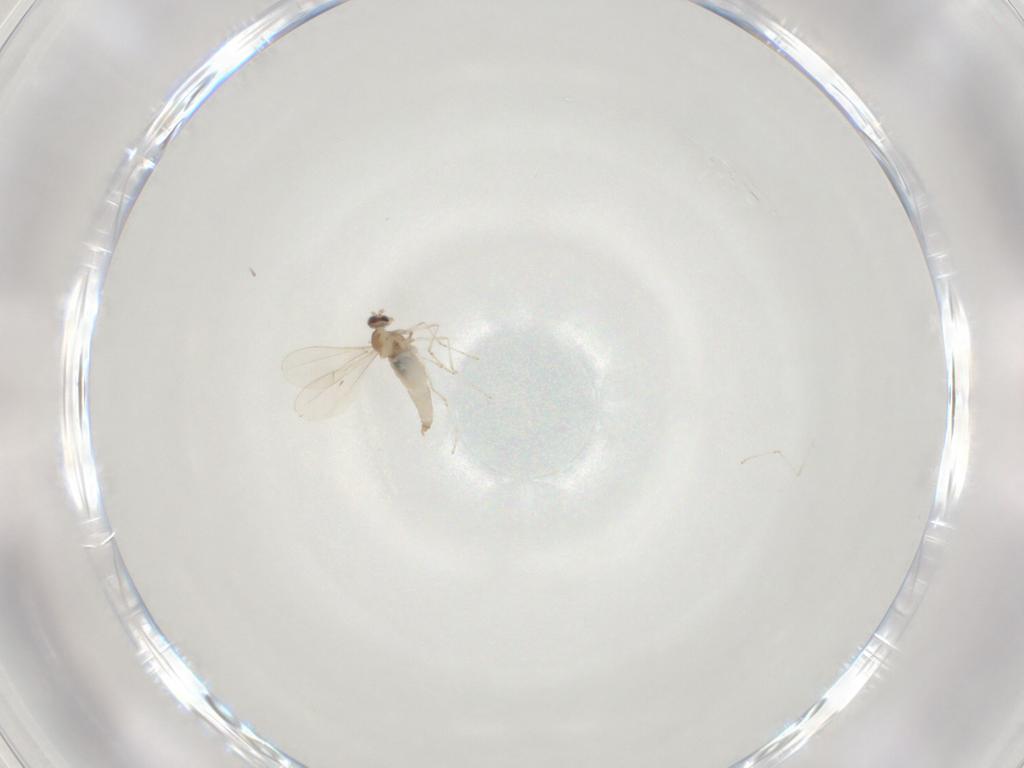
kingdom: Animalia
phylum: Arthropoda
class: Insecta
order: Diptera
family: Cecidomyiidae
